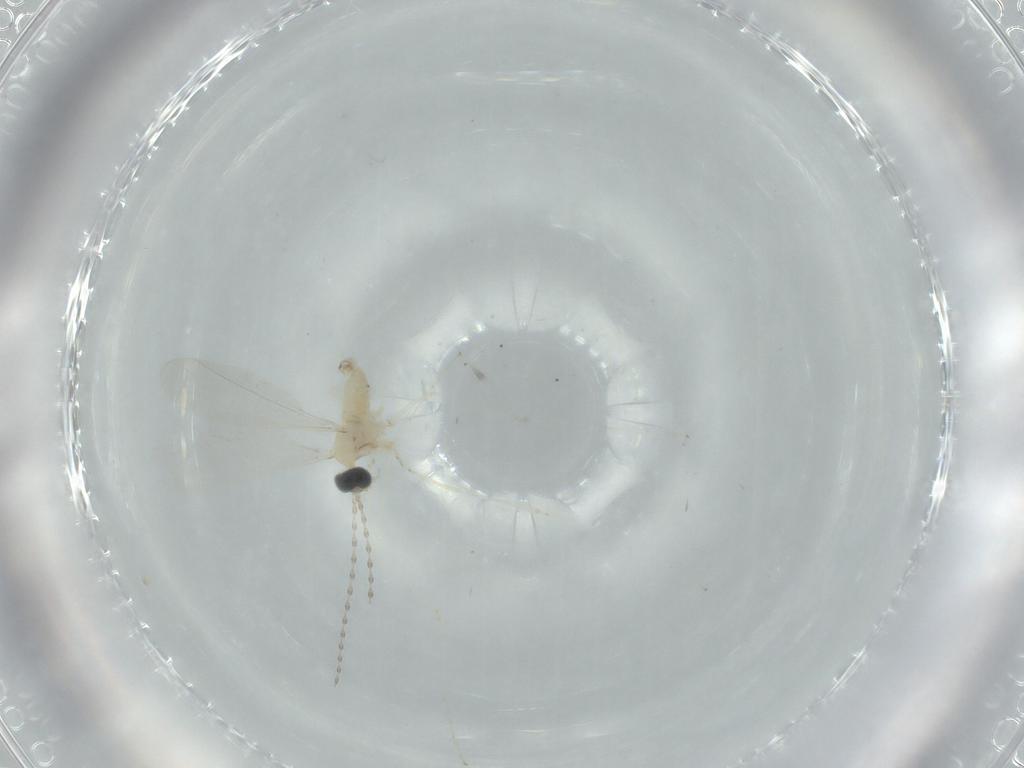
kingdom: Animalia
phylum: Arthropoda
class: Insecta
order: Diptera
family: Cecidomyiidae
